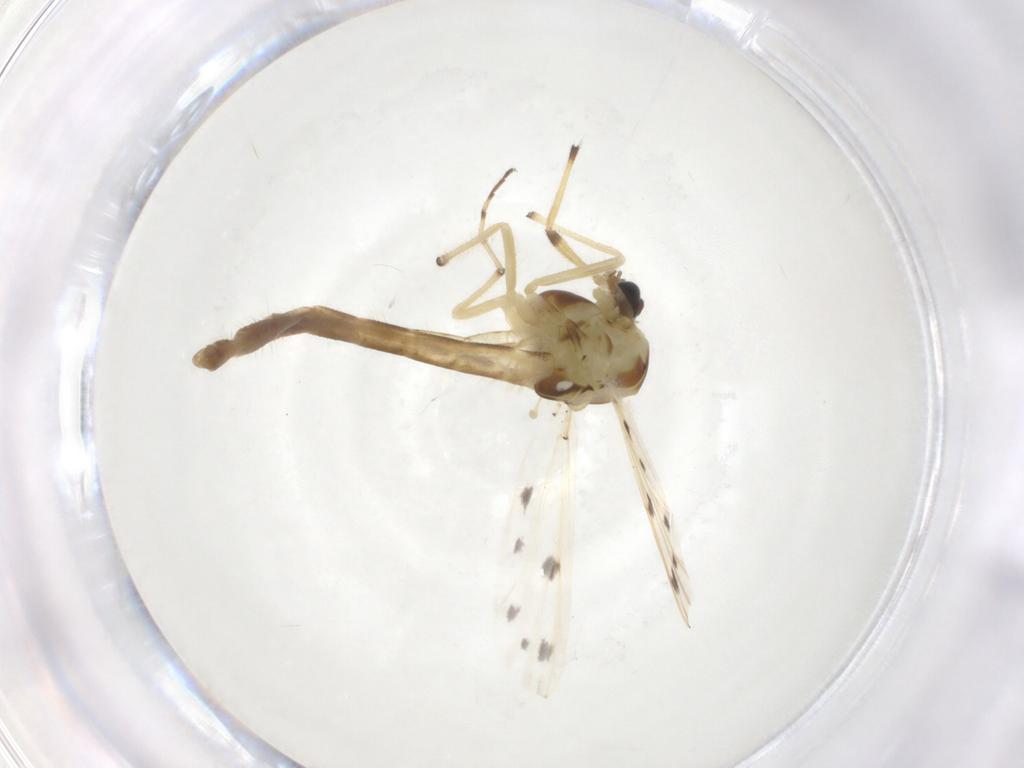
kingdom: Animalia
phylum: Arthropoda
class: Insecta
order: Diptera
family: Chironomidae
